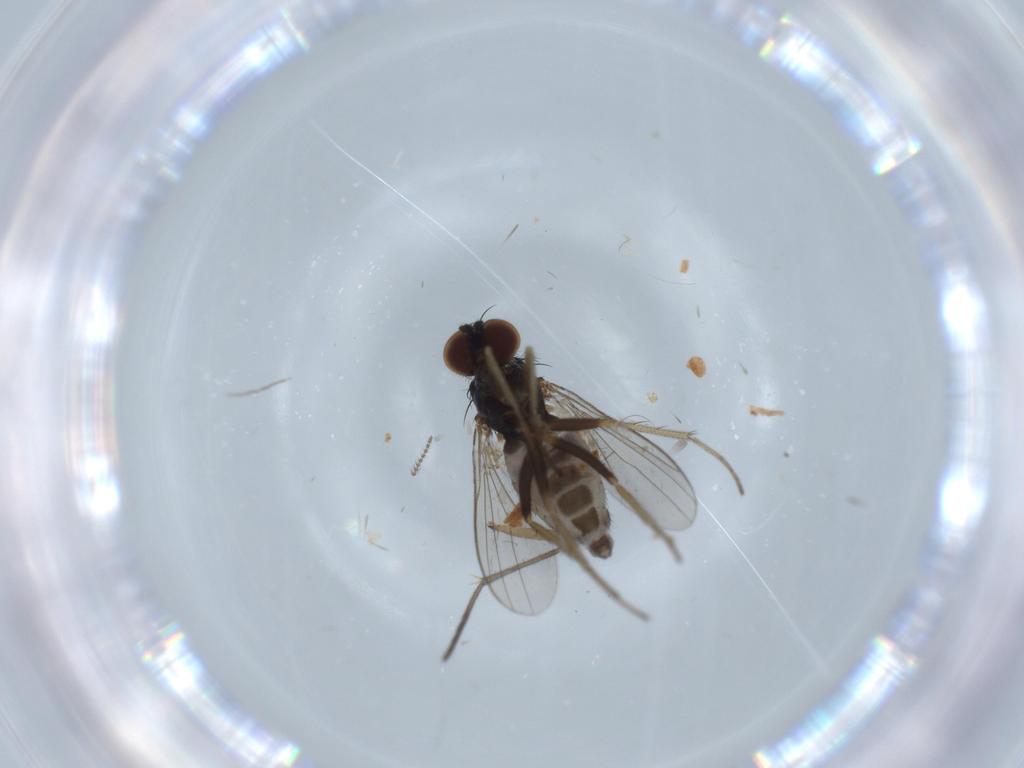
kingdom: Animalia
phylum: Arthropoda
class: Insecta
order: Diptera
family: Ceratopogonidae
